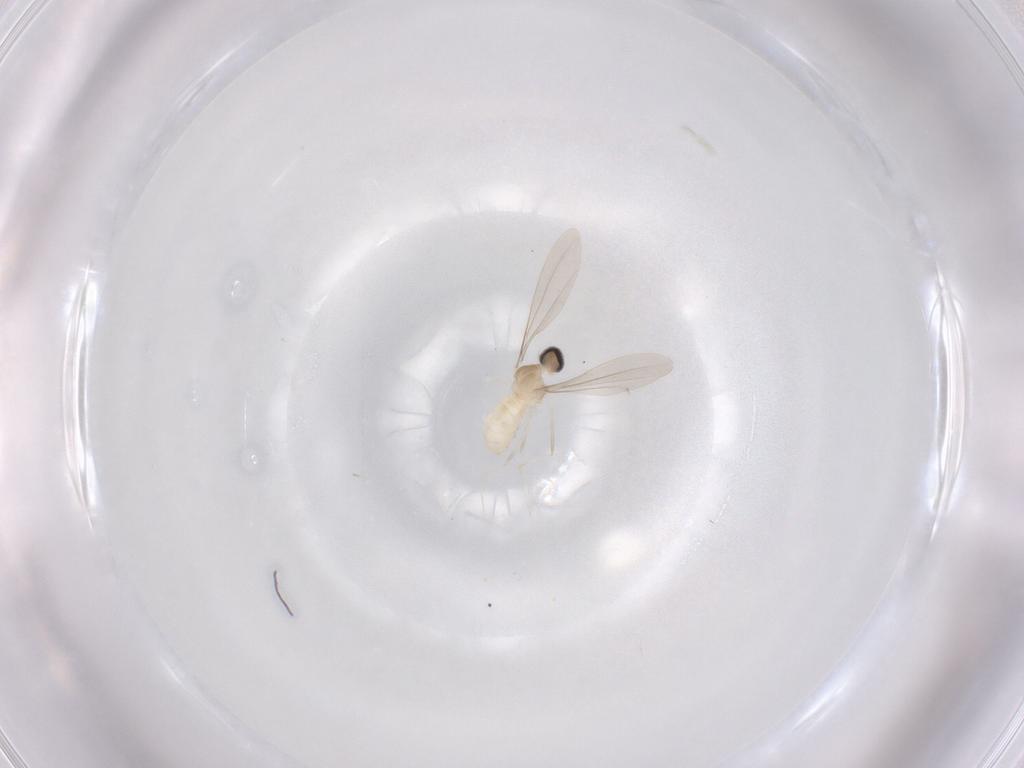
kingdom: Animalia
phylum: Arthropoda
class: Insecta
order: Diptera
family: Phoridae
